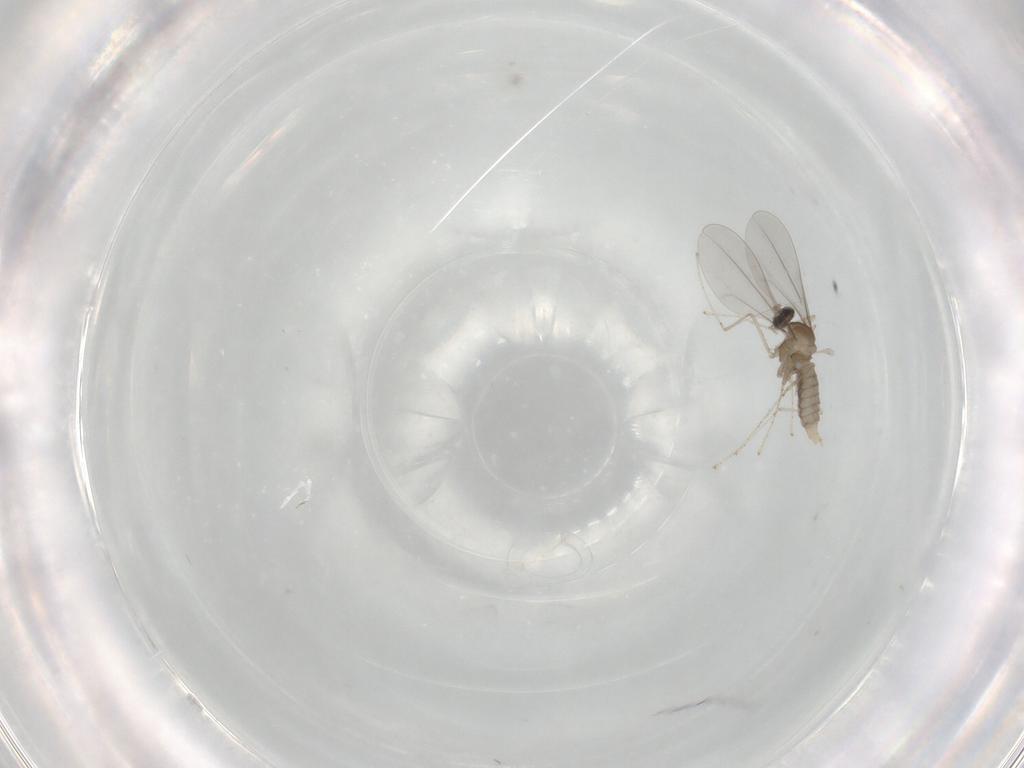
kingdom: Animalia
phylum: Arthropoda
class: Insecta
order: Diptera
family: Cecidomyiidae
